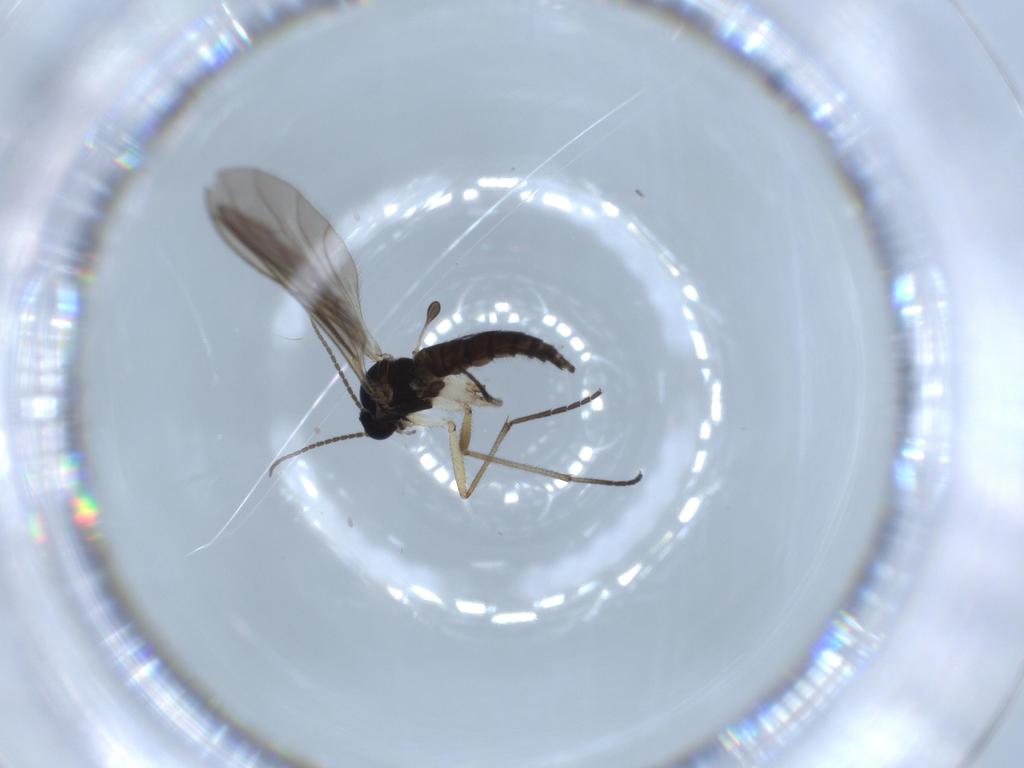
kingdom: Animalia
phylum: Arthropoda
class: Insecta
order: Diptera
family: Sciaridae
